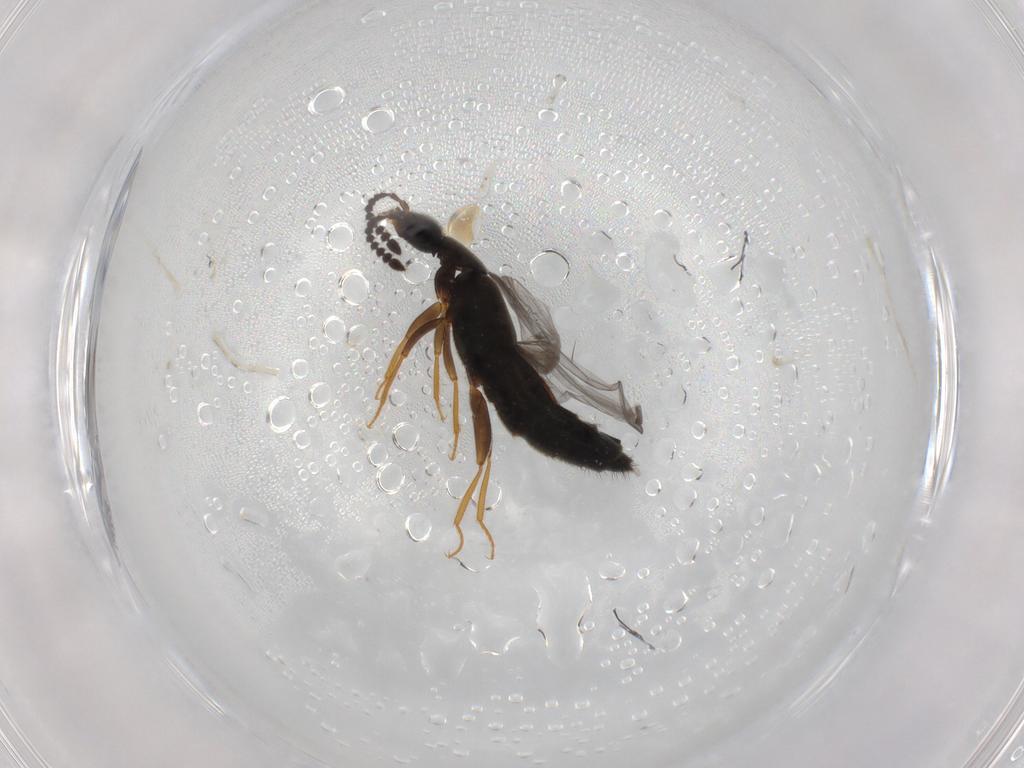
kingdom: Animalia
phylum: Arthropoda
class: Insecta
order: Coleoptera
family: Staphylinidae
